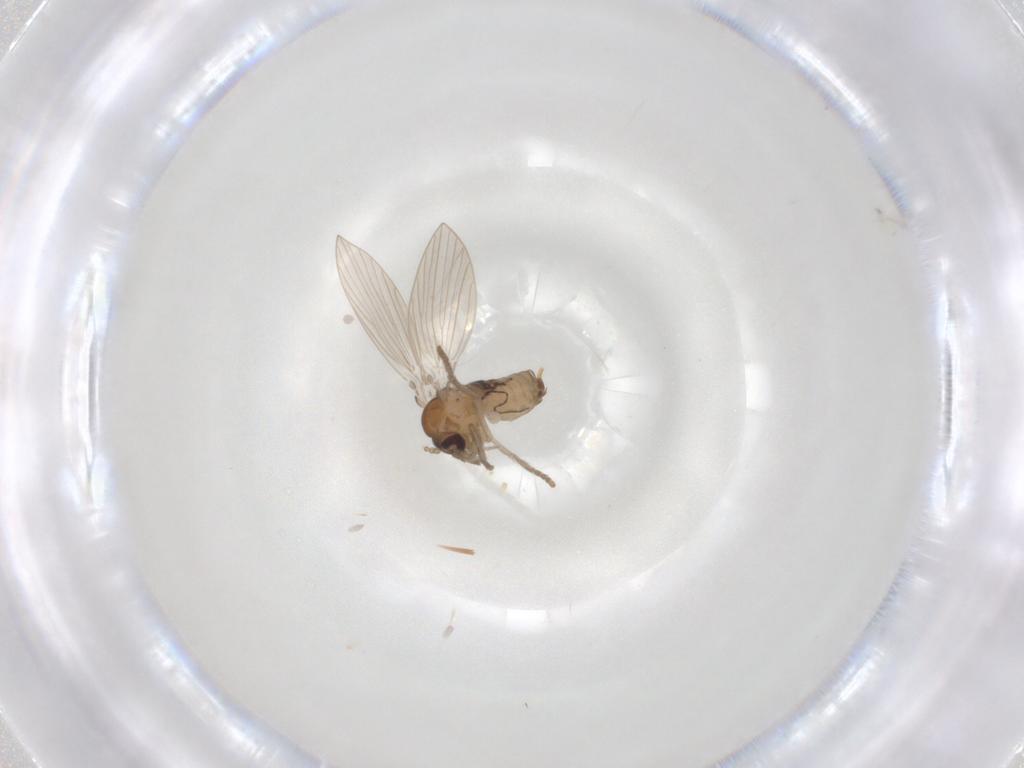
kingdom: Animalia
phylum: Arthropoda
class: Insecta
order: Diptera
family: Psychodidae
